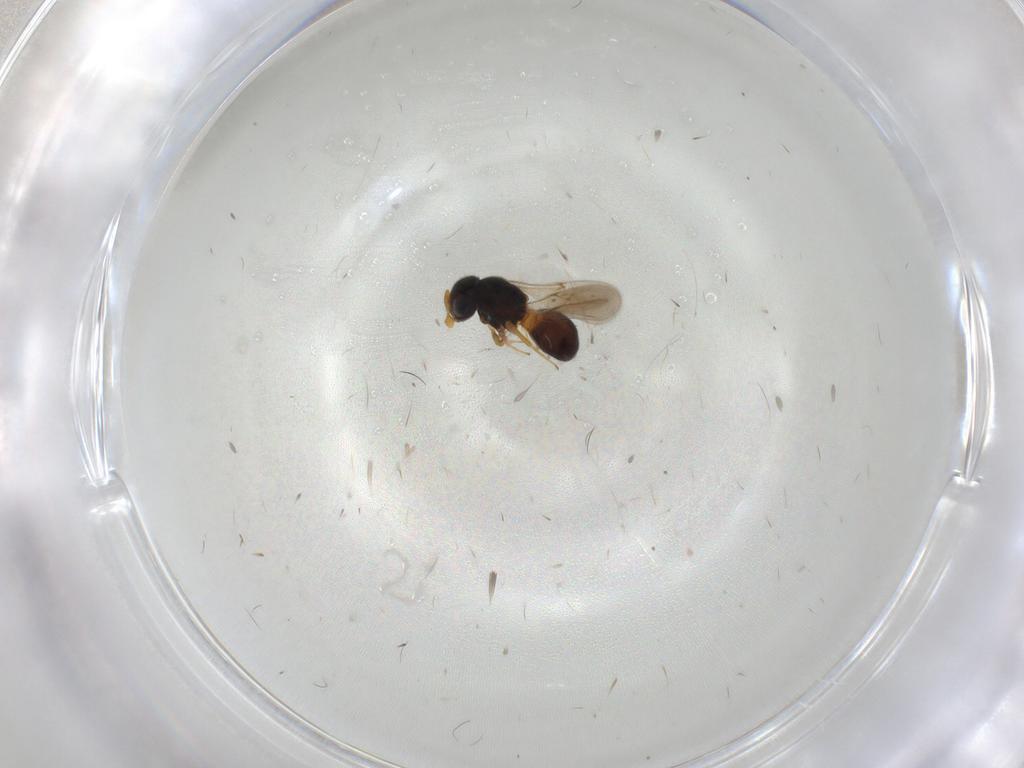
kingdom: Animalia
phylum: Arthropoda
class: Insecta
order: Hymenoptera
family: Scelionidae
